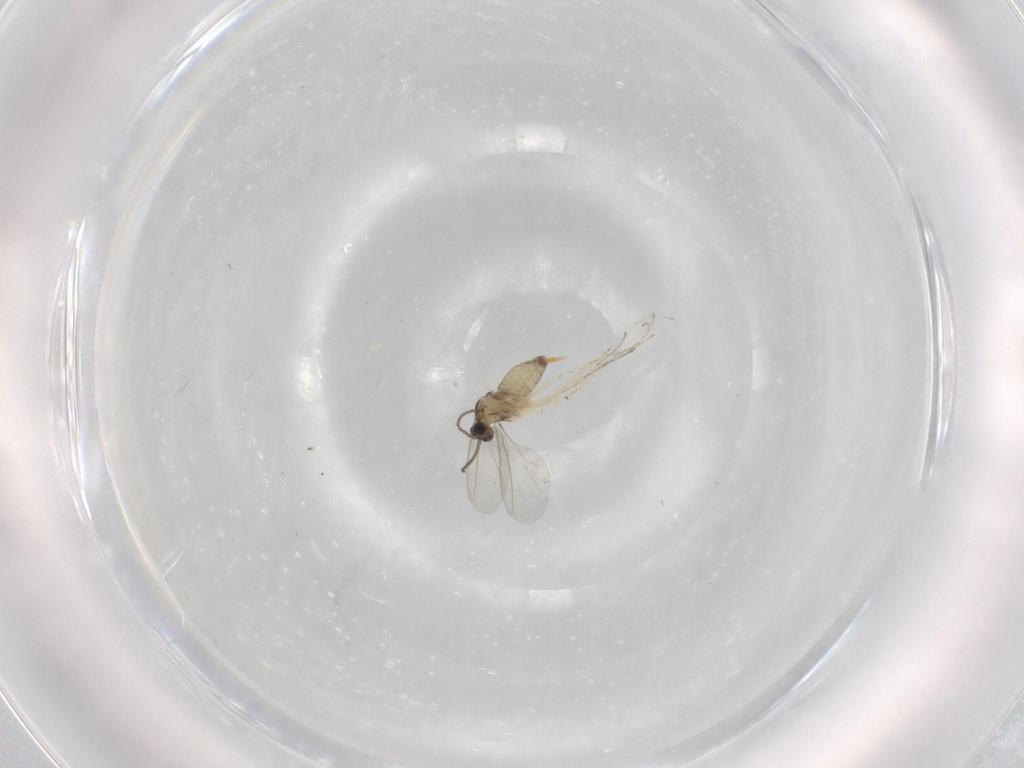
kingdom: Animalia
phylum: Arthropoda
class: Insecta
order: Diptera
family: Cecidomyiidae
